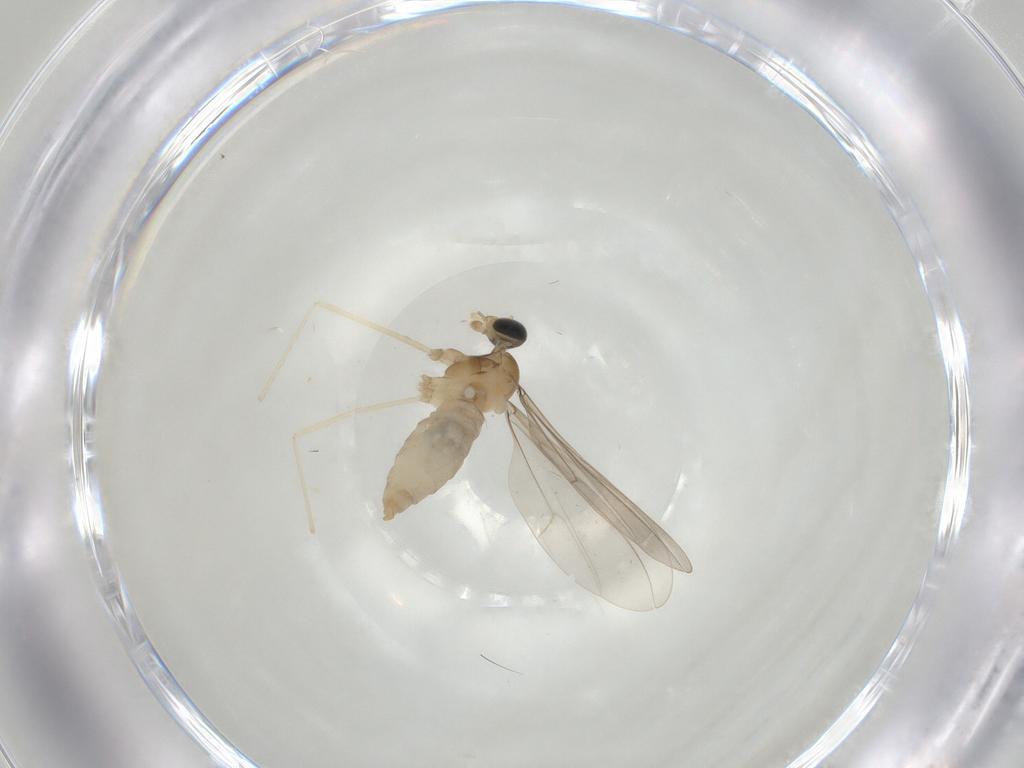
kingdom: Animalia
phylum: Arthropoda
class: Insecta
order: Diptera
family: Cecidomyiidae
